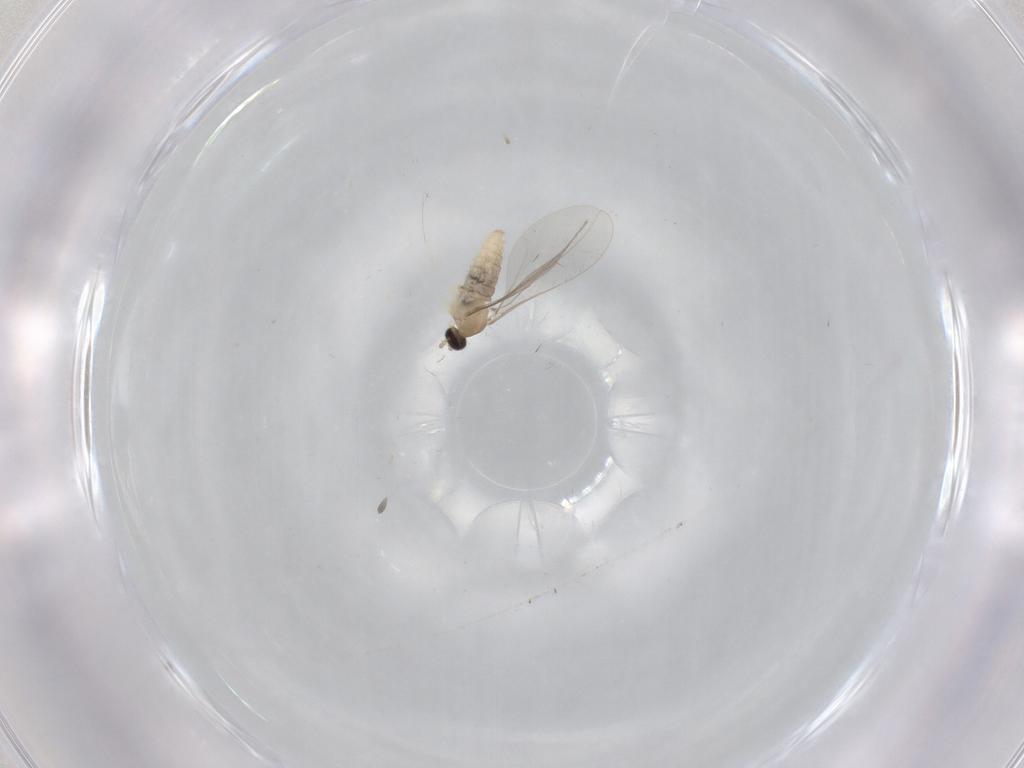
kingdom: Animalia
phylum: Arthropoda
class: Insecta
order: Diptera
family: Cecidomyiidae
